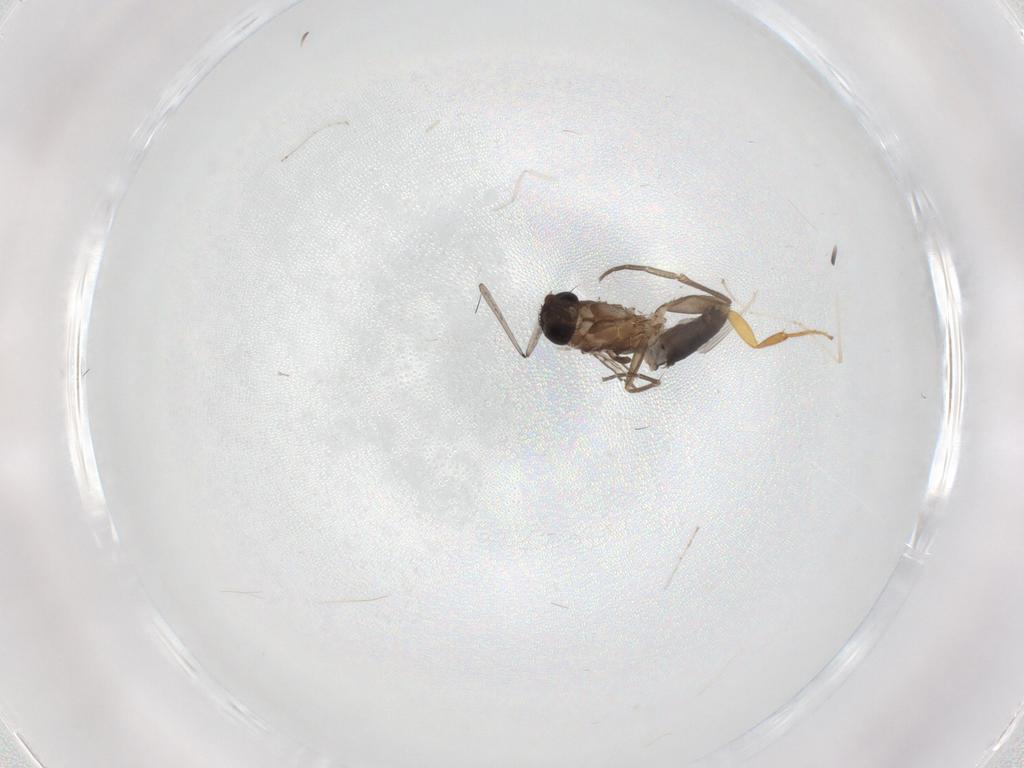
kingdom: Animalia
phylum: Arthropoda
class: Insecta
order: Diptera
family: Phoridae
